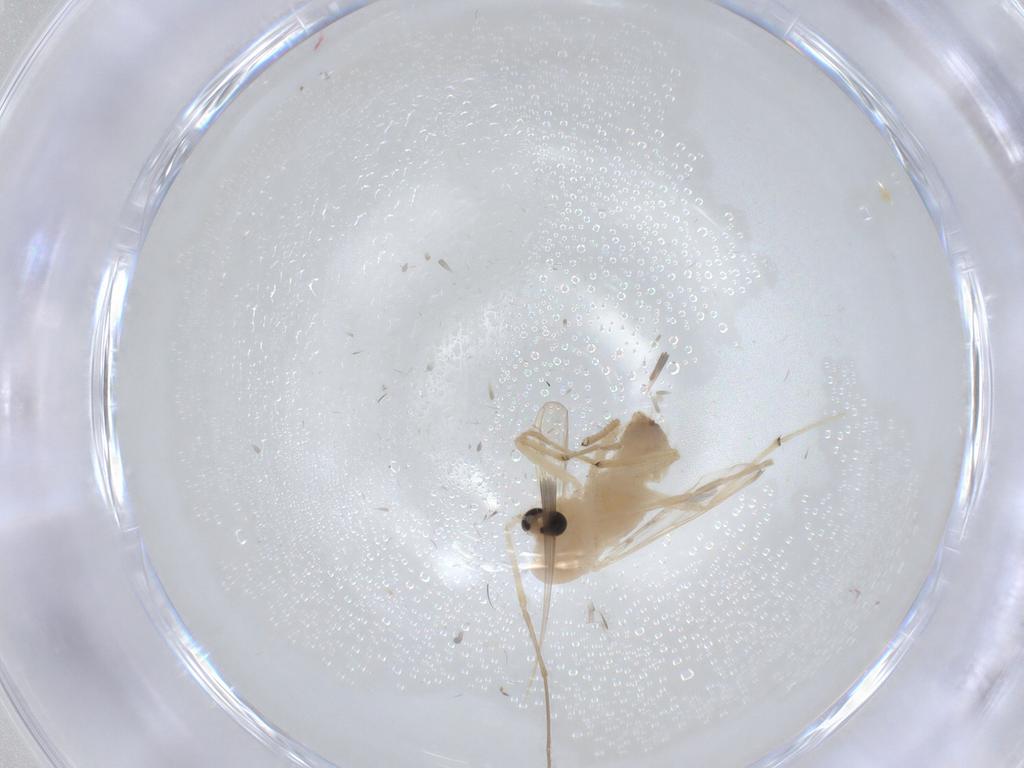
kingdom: Animalia
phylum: Arthropoda
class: Insecta
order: Diptera
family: Chironomidae
